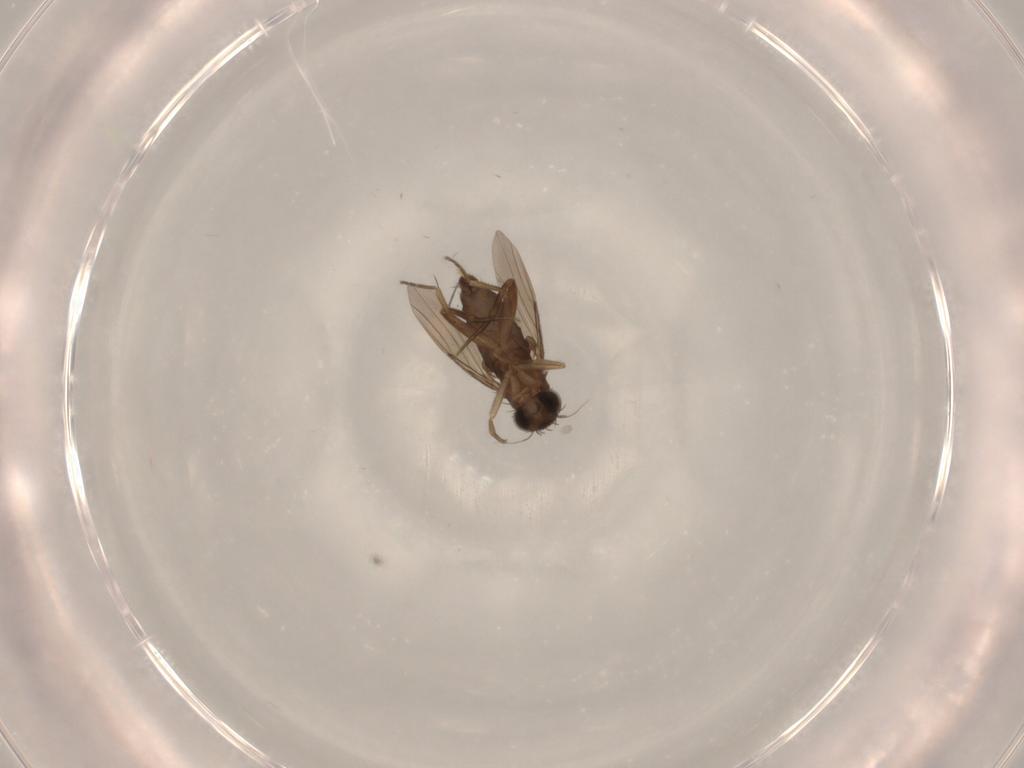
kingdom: Animalia
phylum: Arthropoda
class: Insecta
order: Diptera
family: Phoridae
